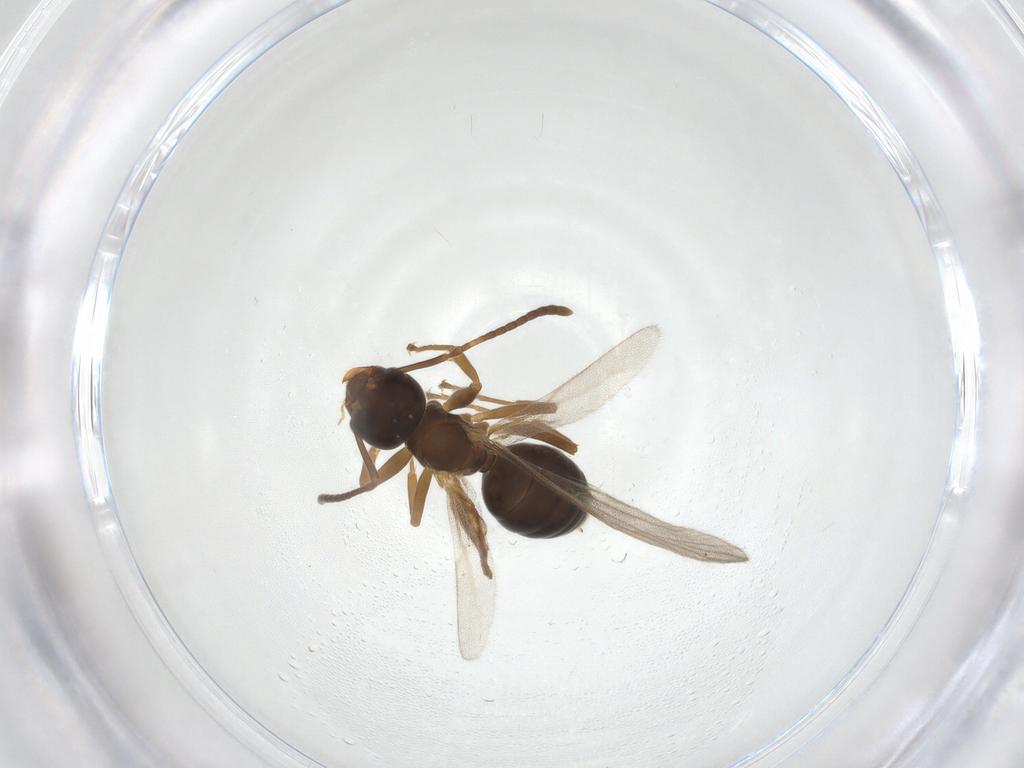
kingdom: Animalia
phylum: Arthropoda
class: Insecta
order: Hymenoptera
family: Formicidae
